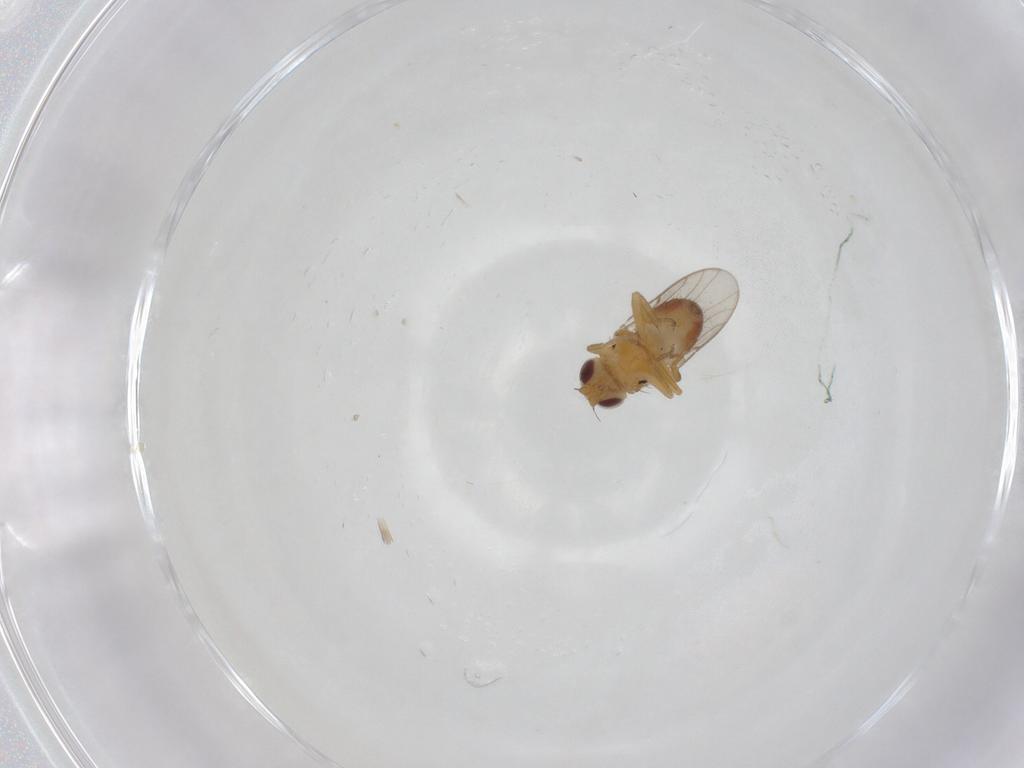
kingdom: Animalia
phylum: Arthropoda
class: Insecta
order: Diptera
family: Chloropidae
